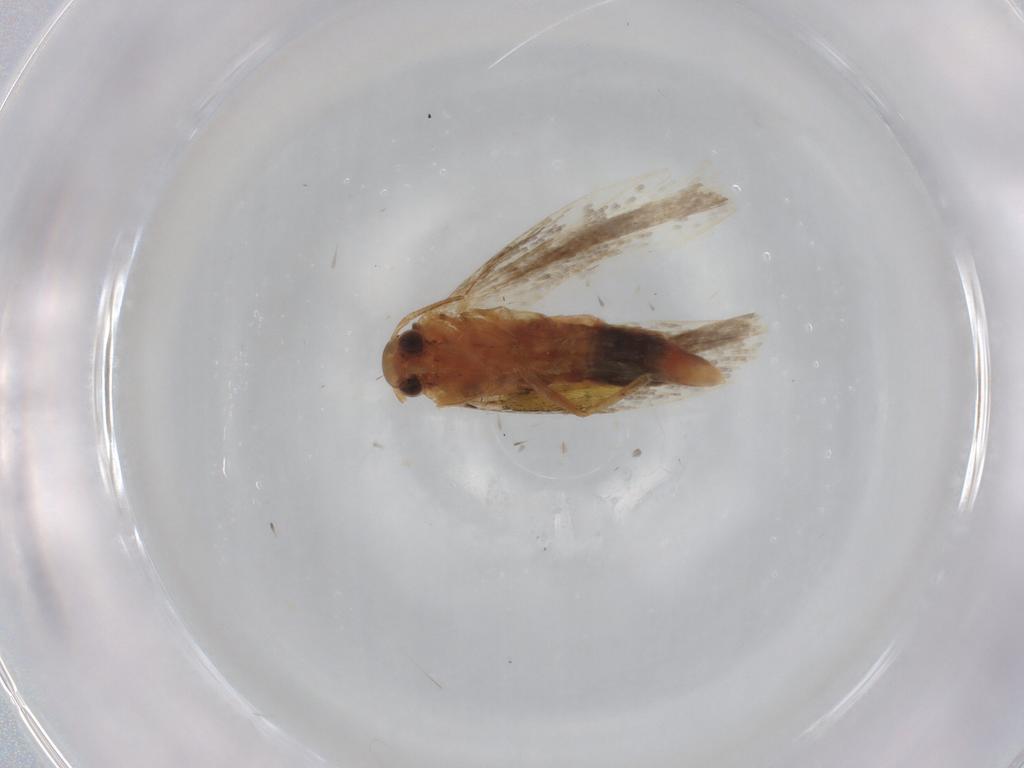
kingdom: Animalia
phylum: Arthropoda
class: Insecta
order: Lepidoptera
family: Gelechiidae
